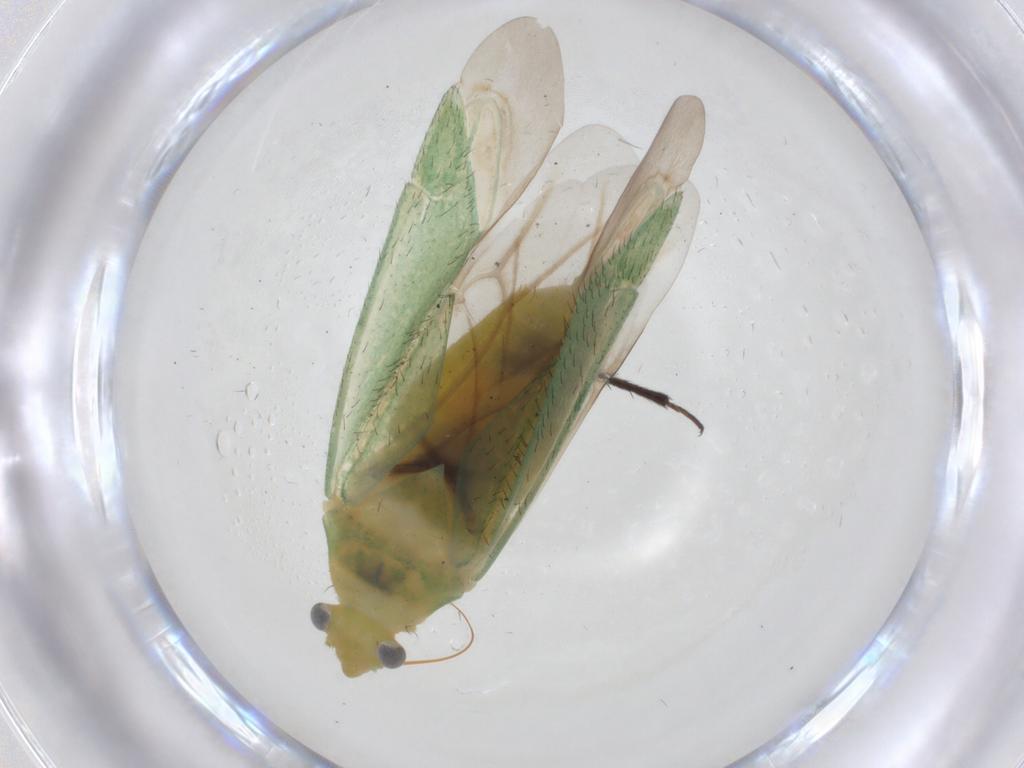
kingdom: Animalia
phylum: Arthropoda
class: Insecta
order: Hemiptera
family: Miridae
